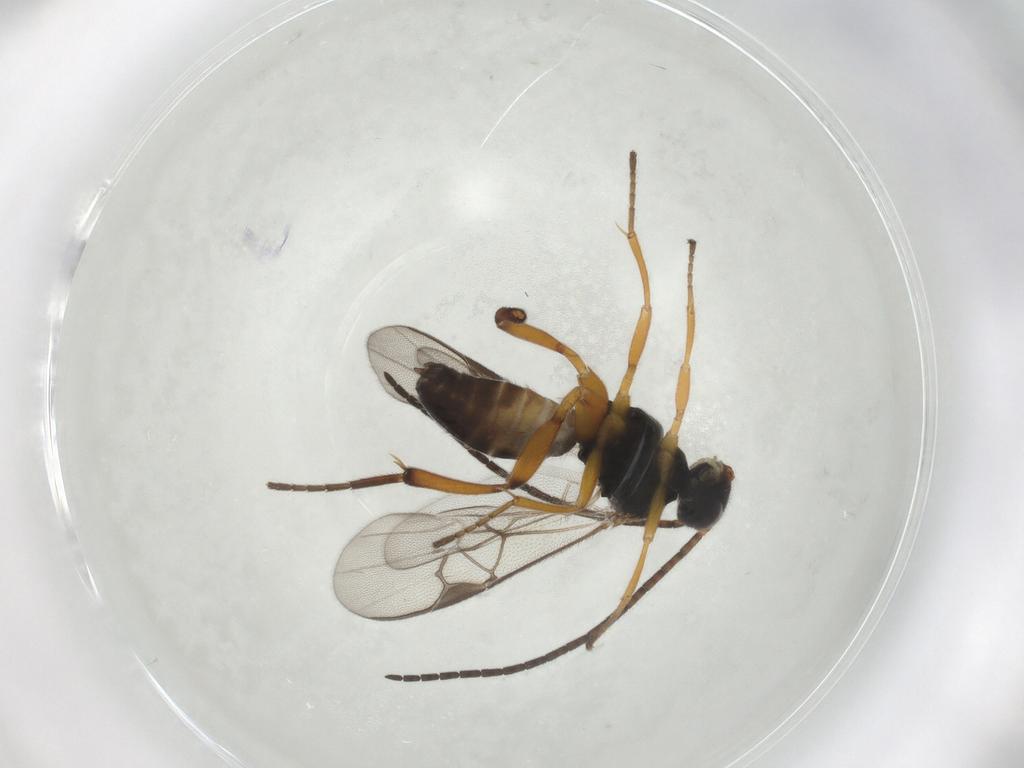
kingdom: Animalia
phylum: Arthropoda
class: Insecta
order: Hymenoptera
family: Braconidae
